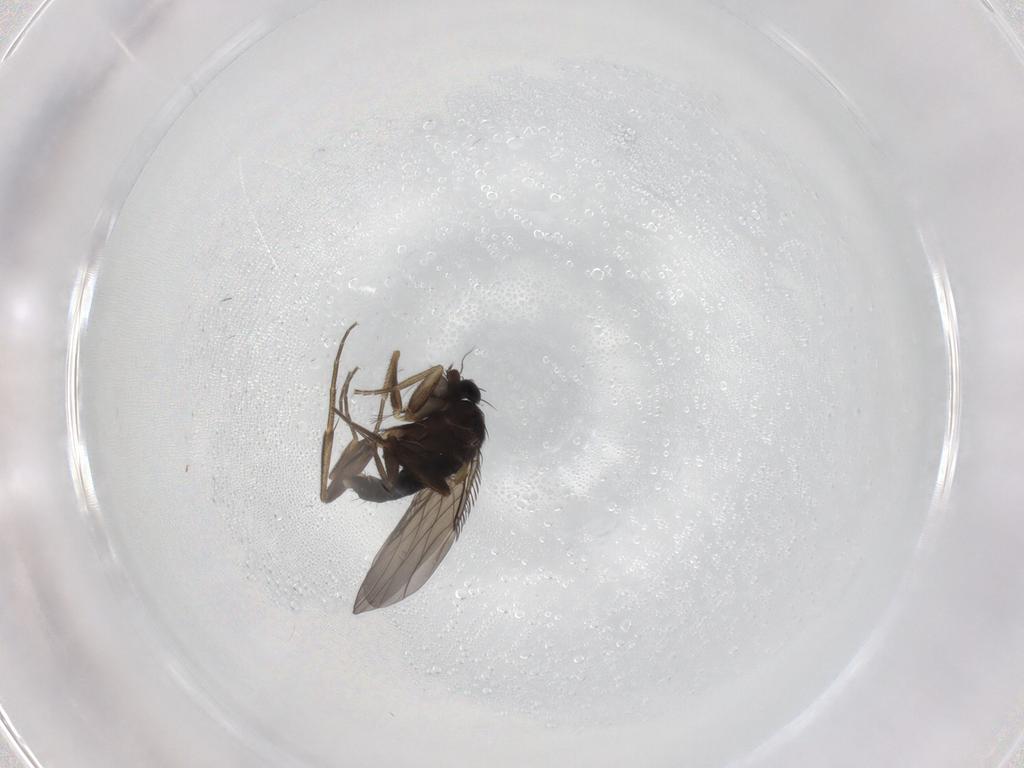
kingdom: Animalia
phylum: Arthropoda
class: Insecta
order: Diptera
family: Phoridae
